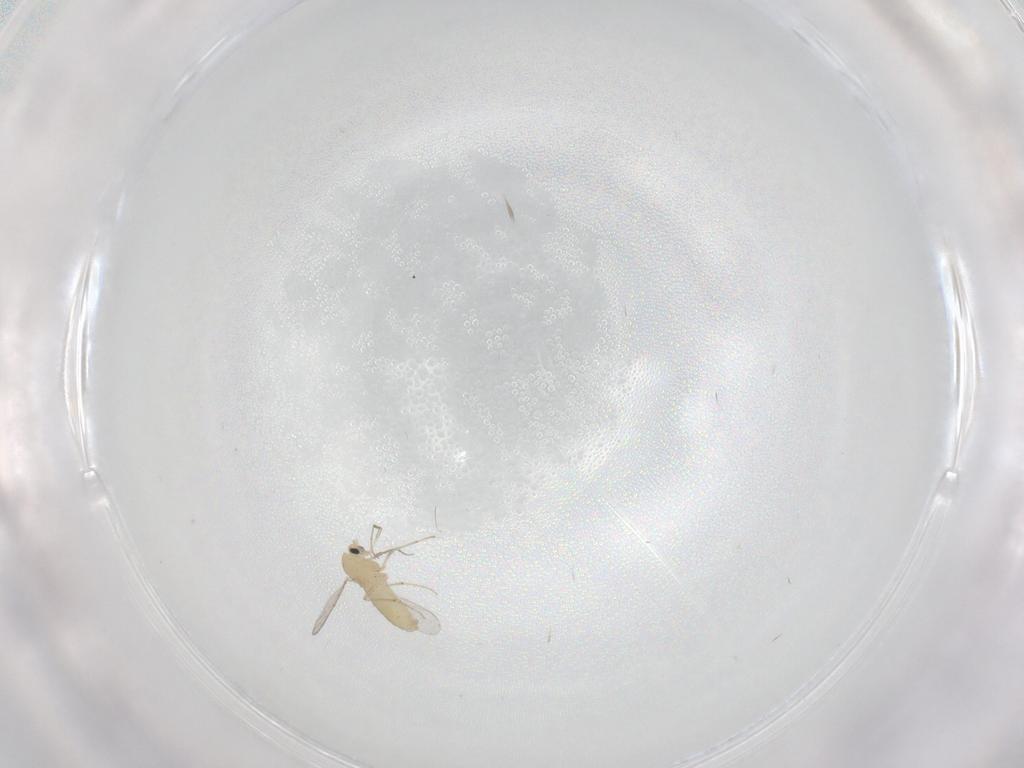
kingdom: Animalia
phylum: Arthropoda
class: Insecta
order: Diptera
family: Chironomidae
